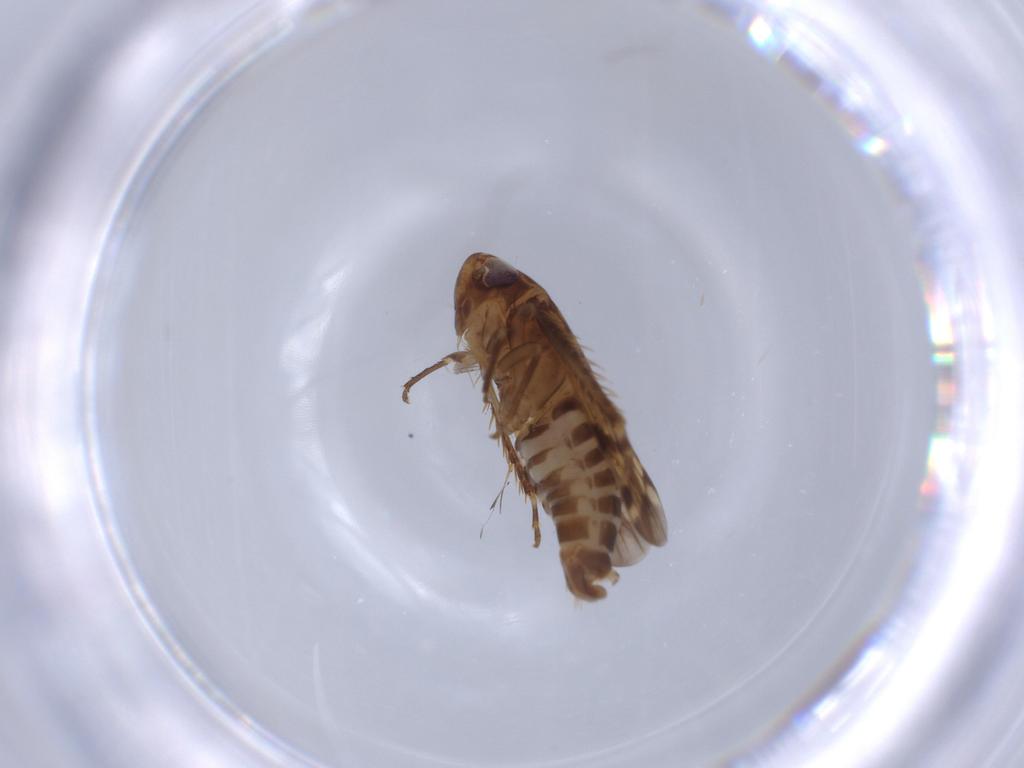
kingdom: Animalia
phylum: Arthropoda
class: Insecta
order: Hemiptera
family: Cicadellidae
